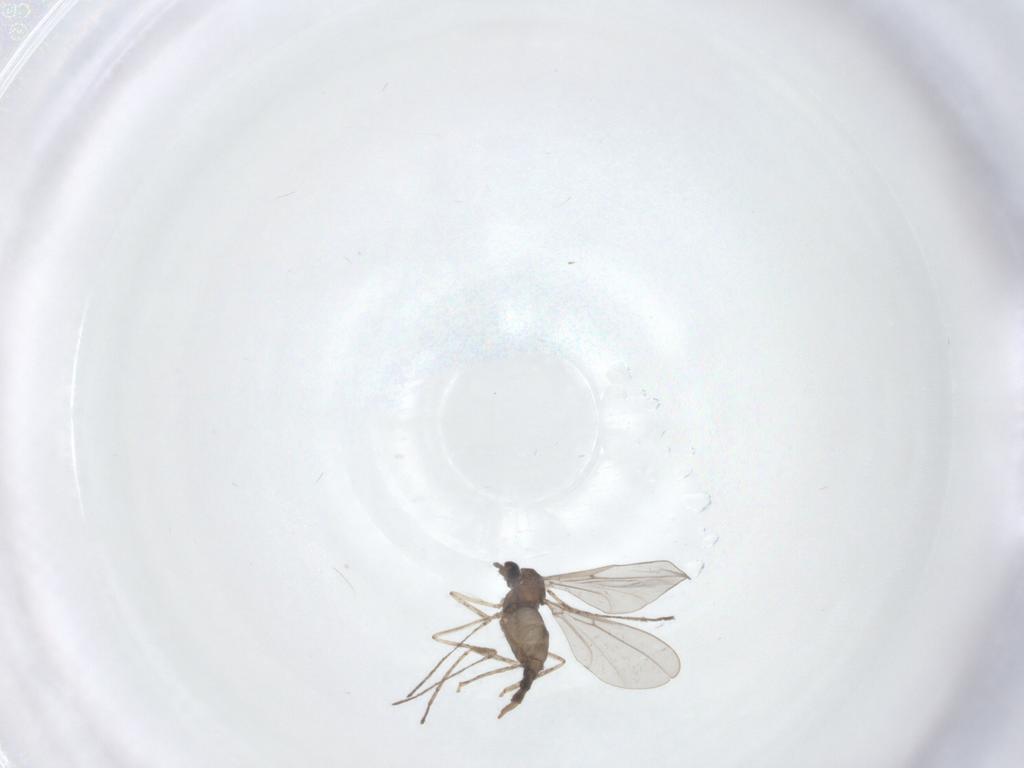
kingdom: Animalia
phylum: Arthropoda
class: Insecta
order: Diptera
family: Cecidomyiidae
